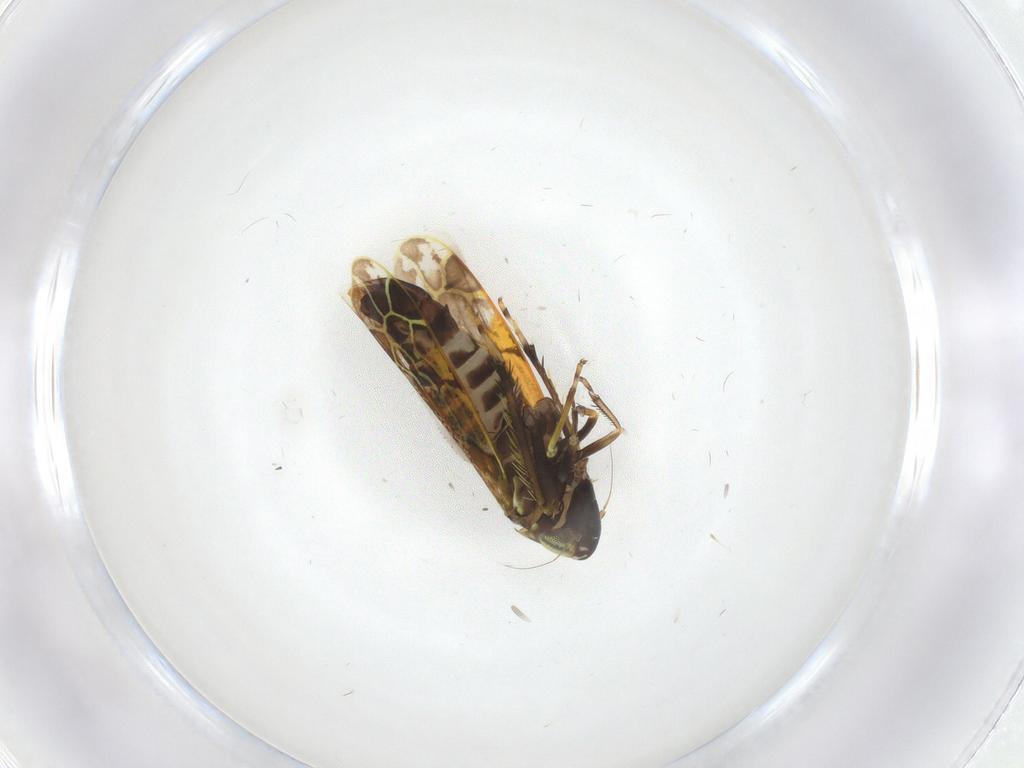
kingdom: Animalia
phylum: Arthropoda
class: Insecta
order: Hemiptera
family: Cicadellidae
